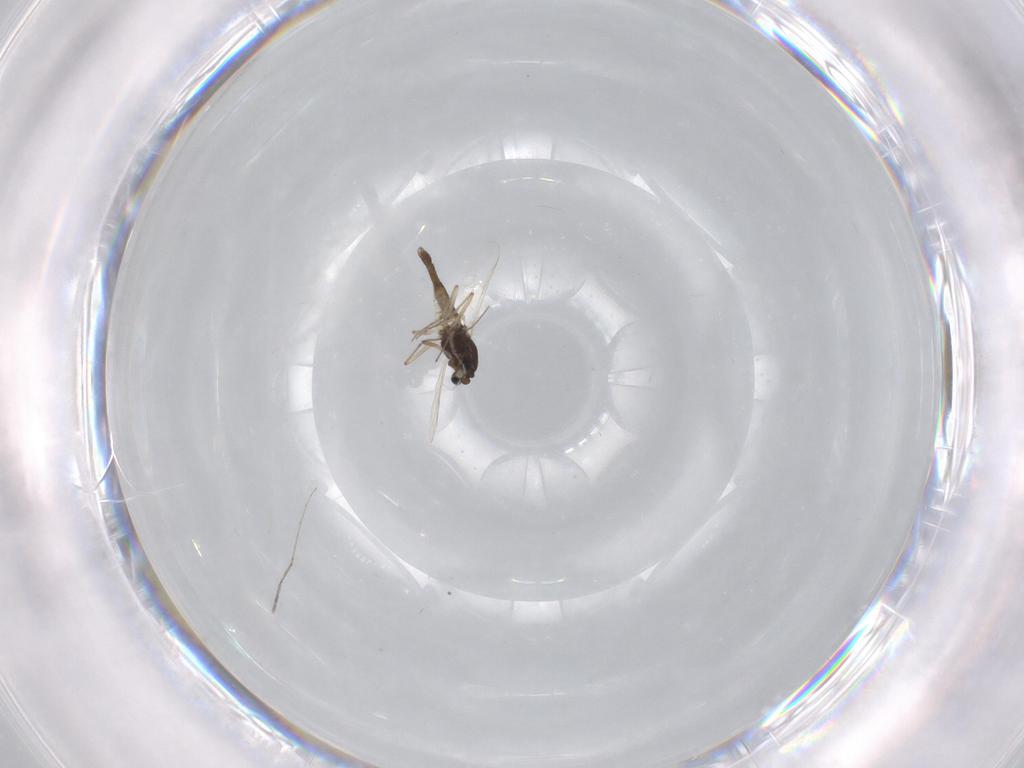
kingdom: Animalia
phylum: Arthropoda
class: Insecta
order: Diptera
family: Chironomidae
